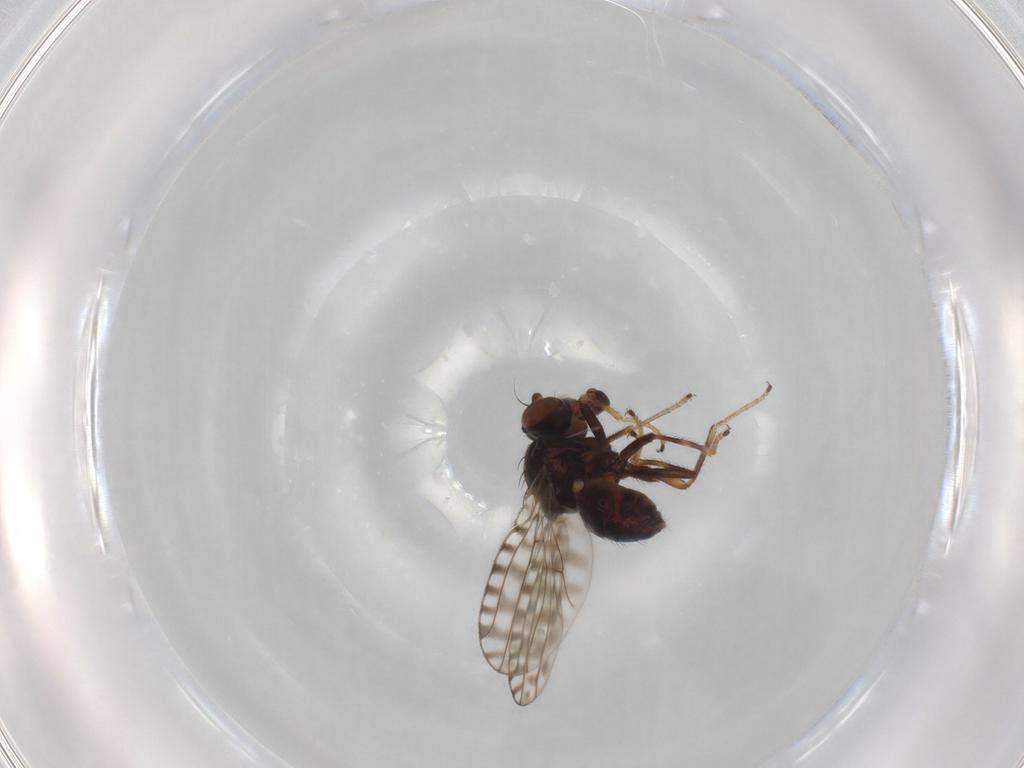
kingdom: Animalia
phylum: Arthropoda
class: Insecta
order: Diptera
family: Ephydridae
